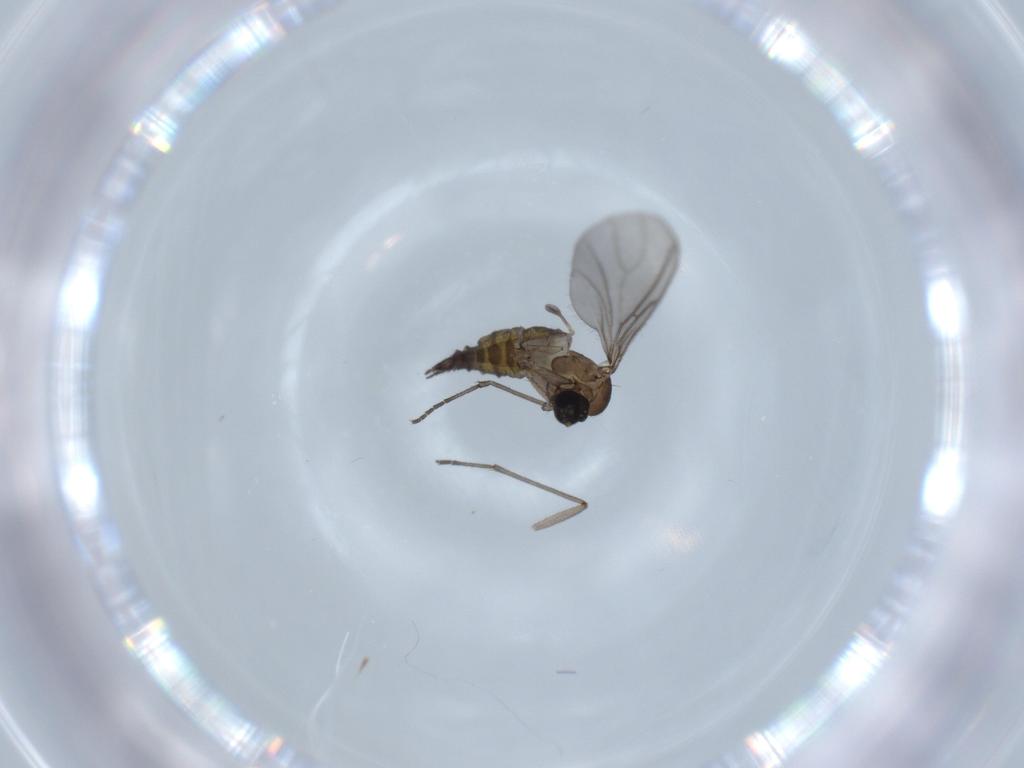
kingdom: Animalia
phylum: Arthropoda
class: Insecta
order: Diptera
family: Sciaridae
